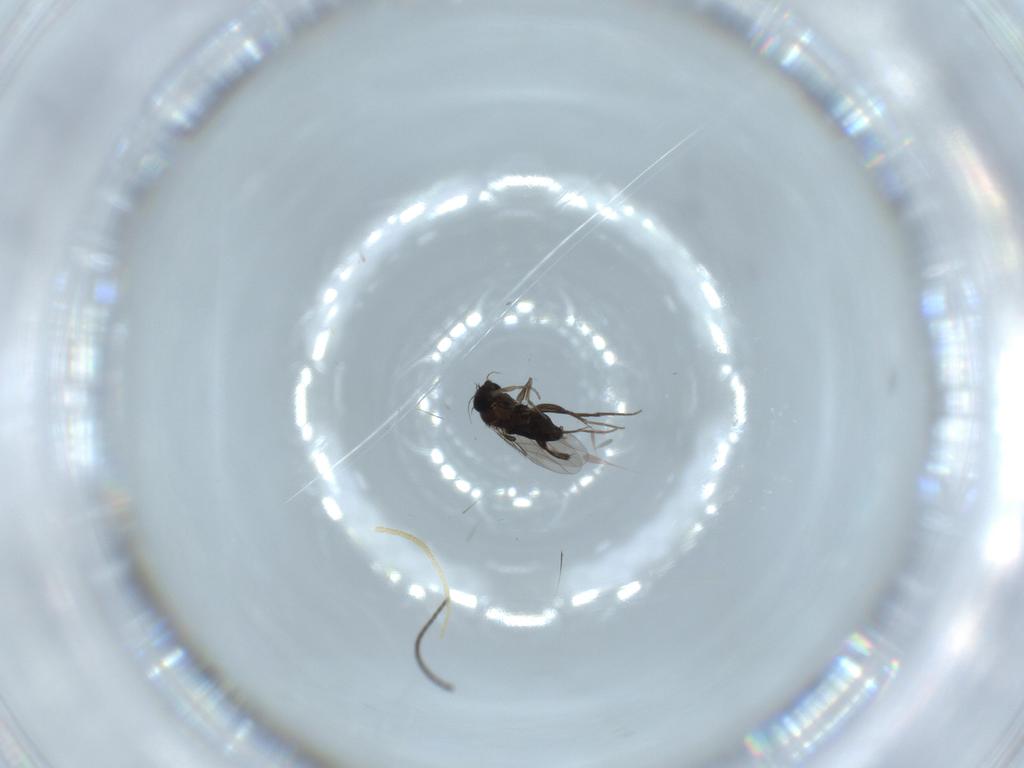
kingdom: Animalia
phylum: Arthropoda
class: Insecta
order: Diptera
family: Sciaridae
